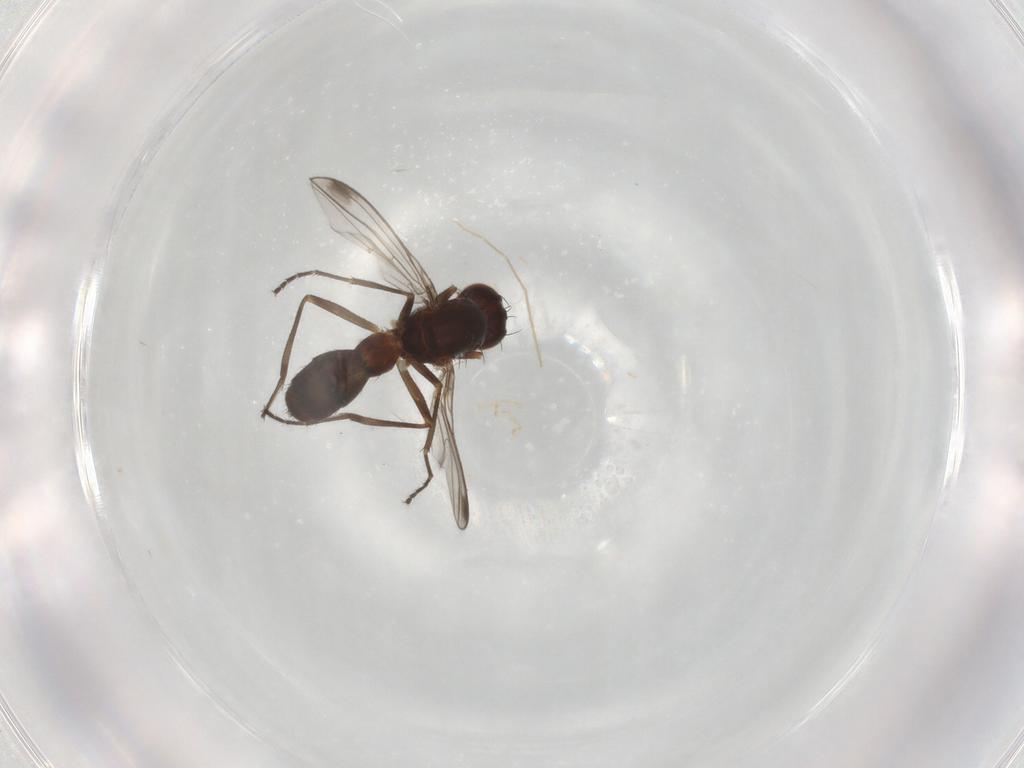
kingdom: Animalia
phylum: Arthropoda
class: Insecta
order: Diptera
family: Sepsidae
